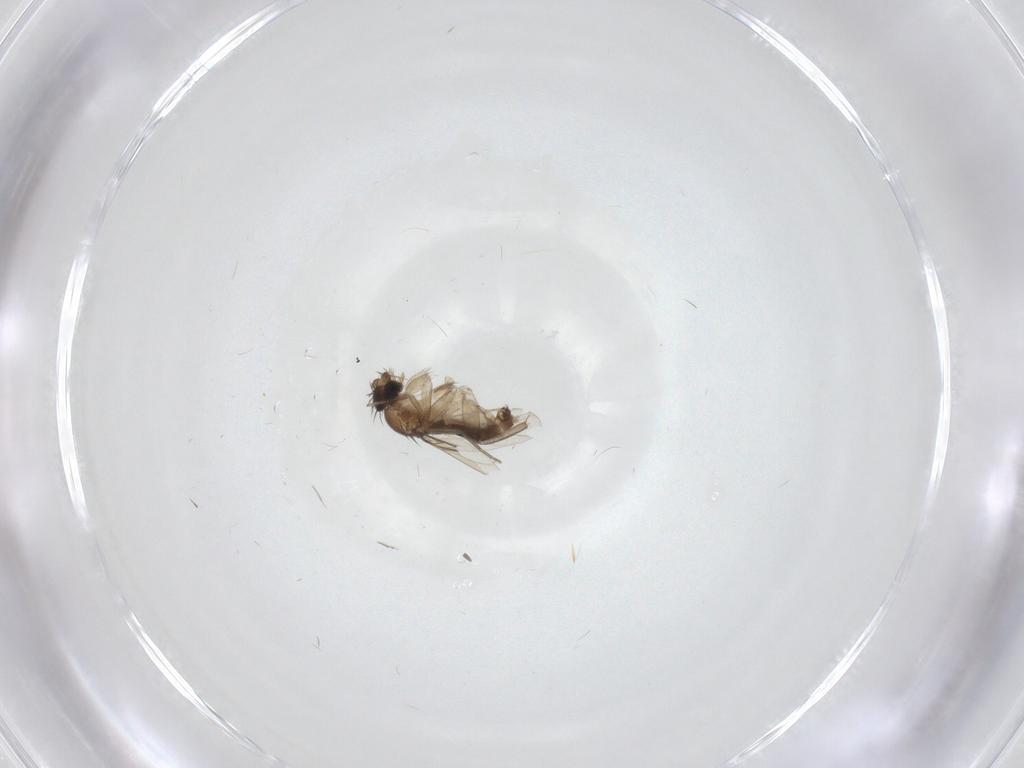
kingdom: Animalia
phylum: Arthropoda
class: Insecta
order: Diptera
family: Phoridae
